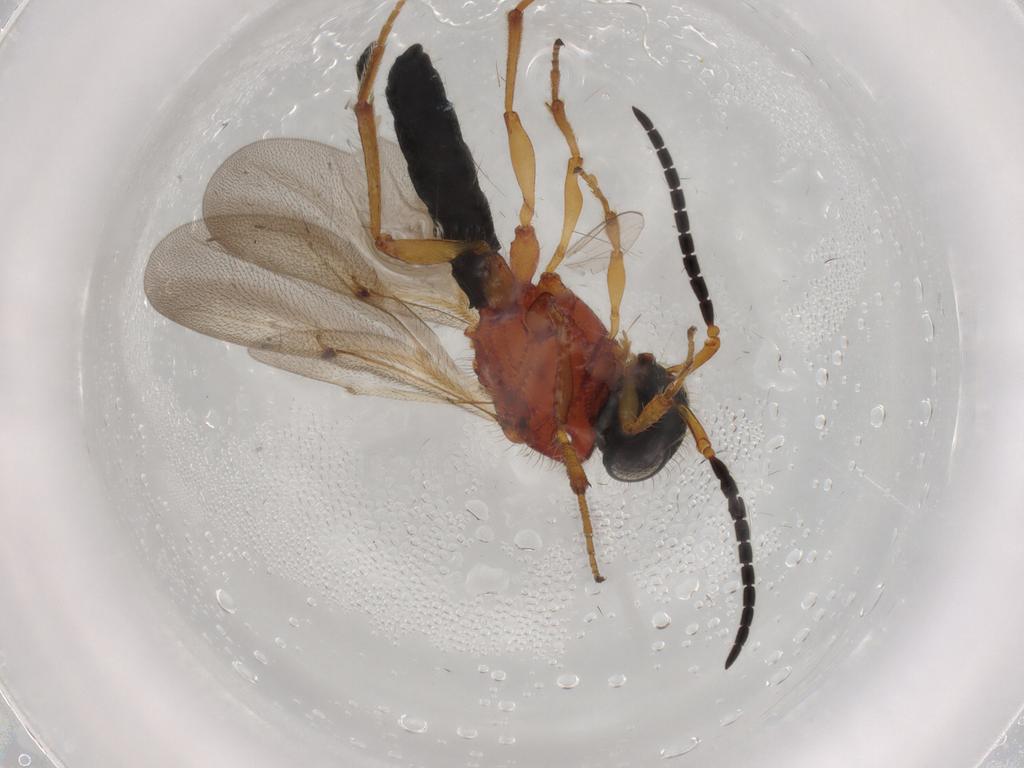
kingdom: Animalia
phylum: Arthropoda
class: Insecta
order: Hymenoptera
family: Scelionidae
